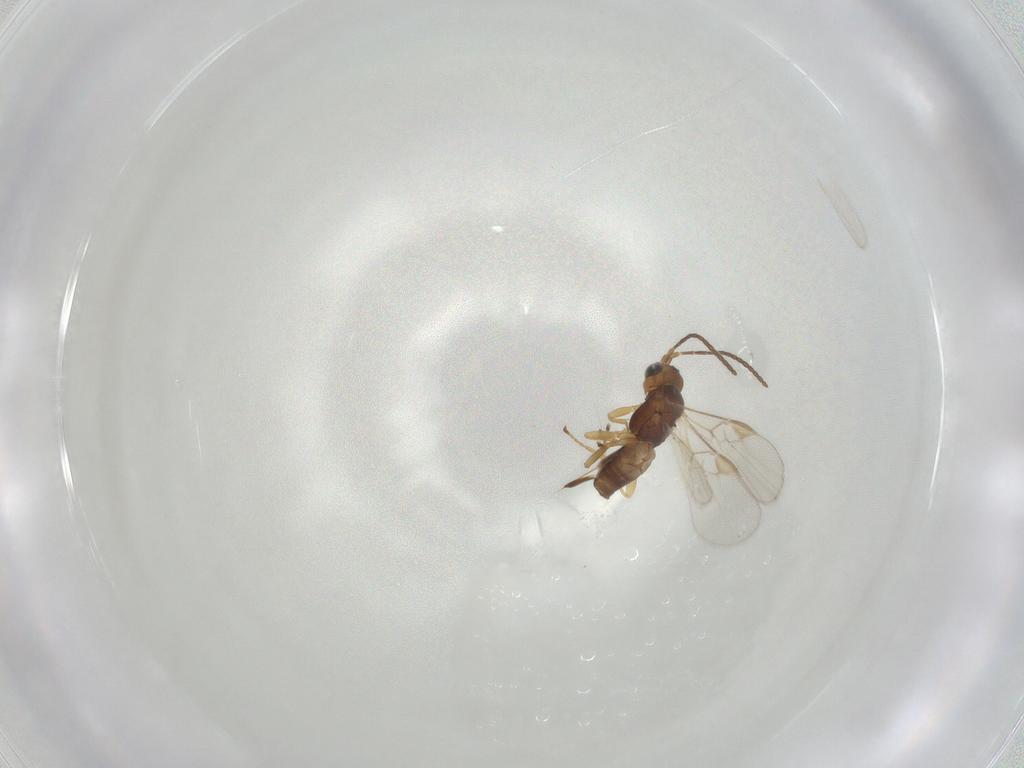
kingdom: Animalia
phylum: Arthropoda
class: Insecta
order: Hymenoptera
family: Braconidae
